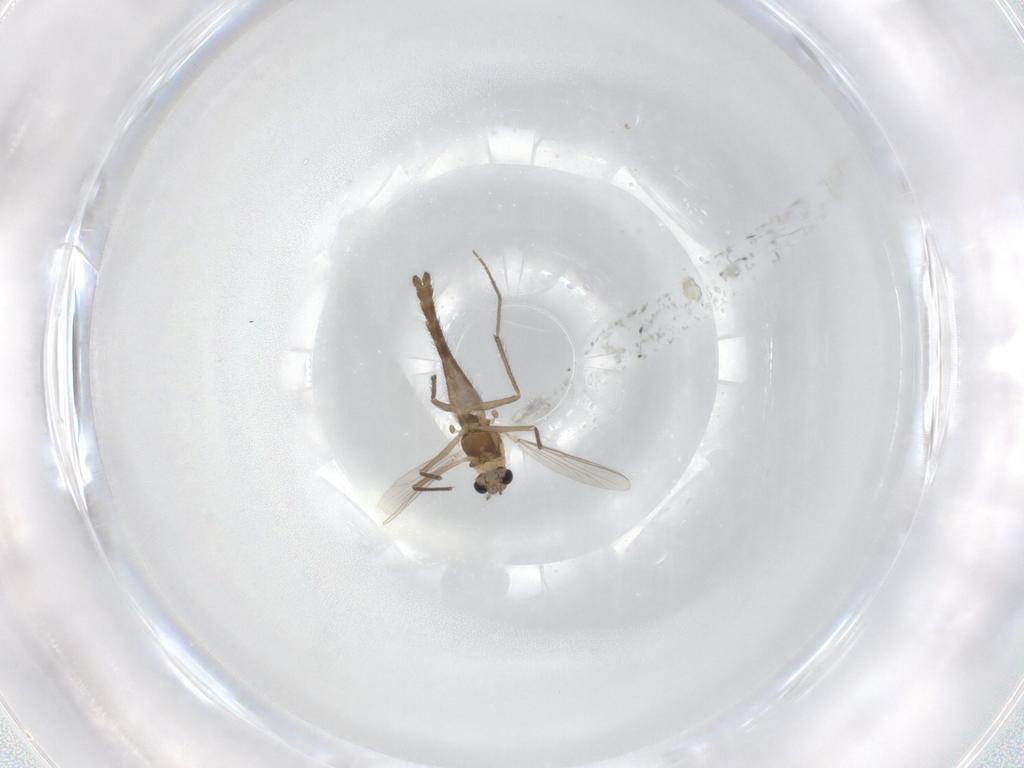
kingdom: Animalia
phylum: Arthropoda
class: Insecta
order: Diptera
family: Chironomidae
